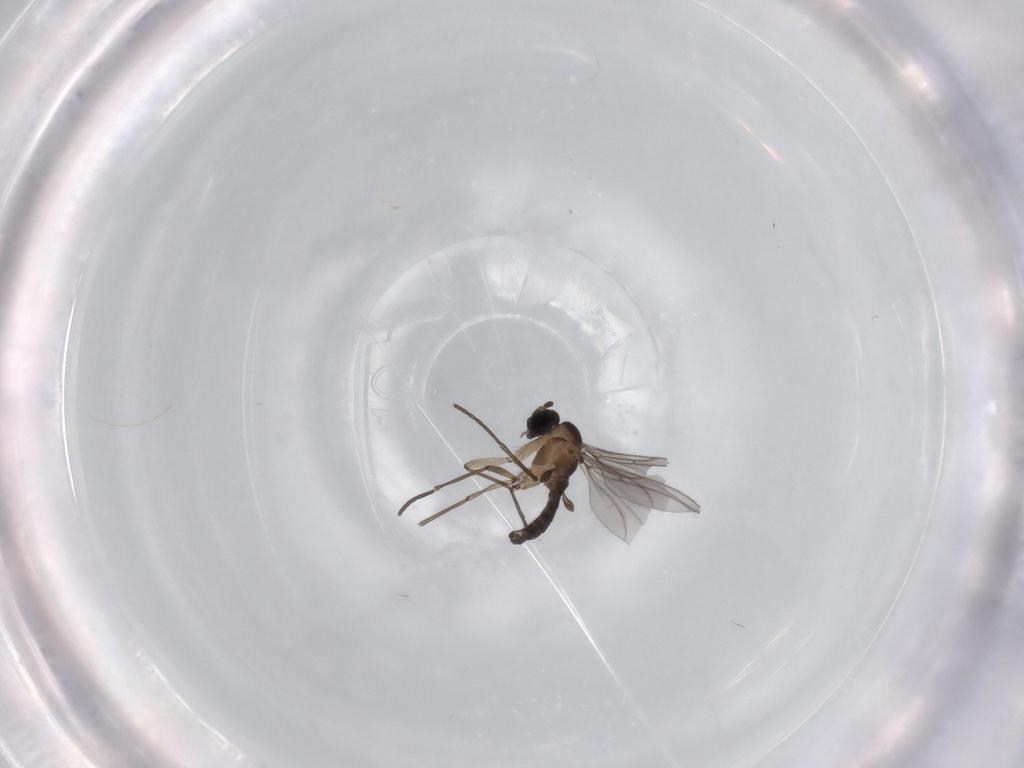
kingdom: Animalia
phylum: Arthropoda
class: Insecta
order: Diptera
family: Sciaridae
